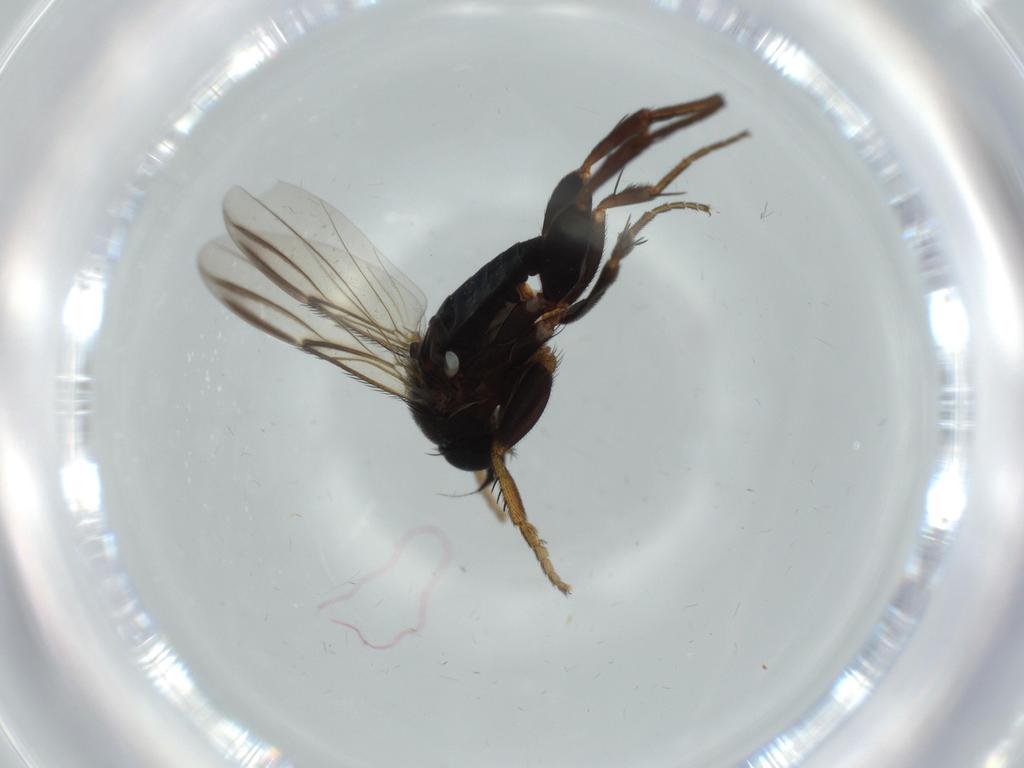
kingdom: Animalia
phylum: Arthropoda
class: Insecta
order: Diptera
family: Phoridae
